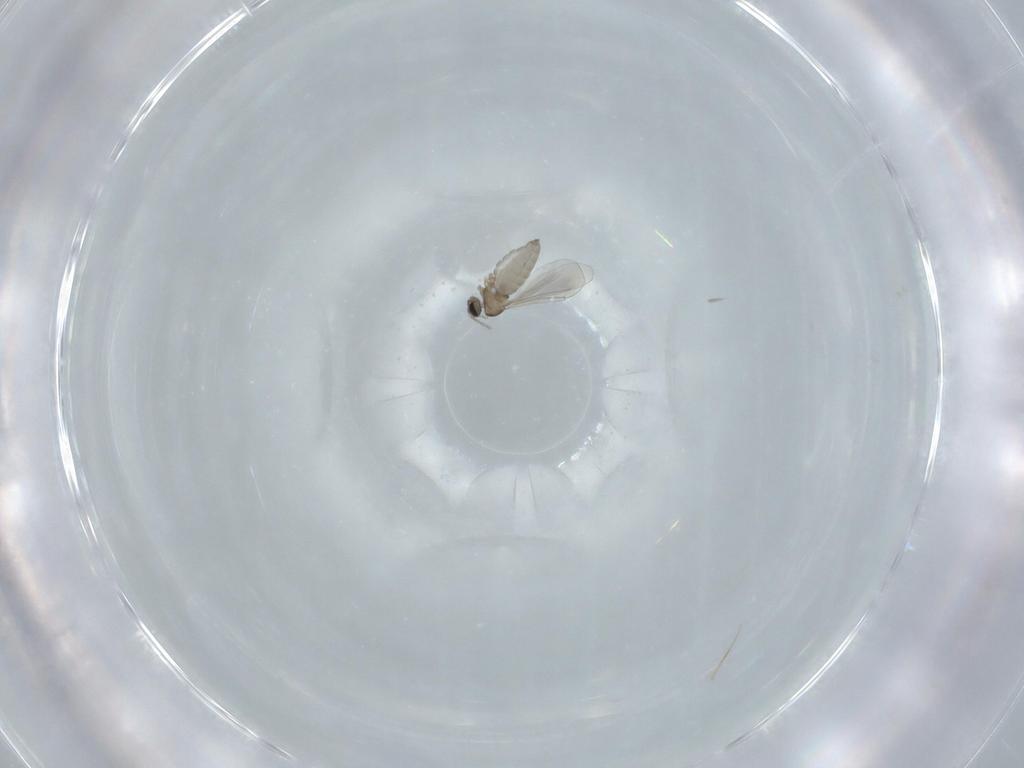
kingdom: Animalia
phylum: Arthropoda
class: Insecta
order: Diptera
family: Cecidomyiidae
